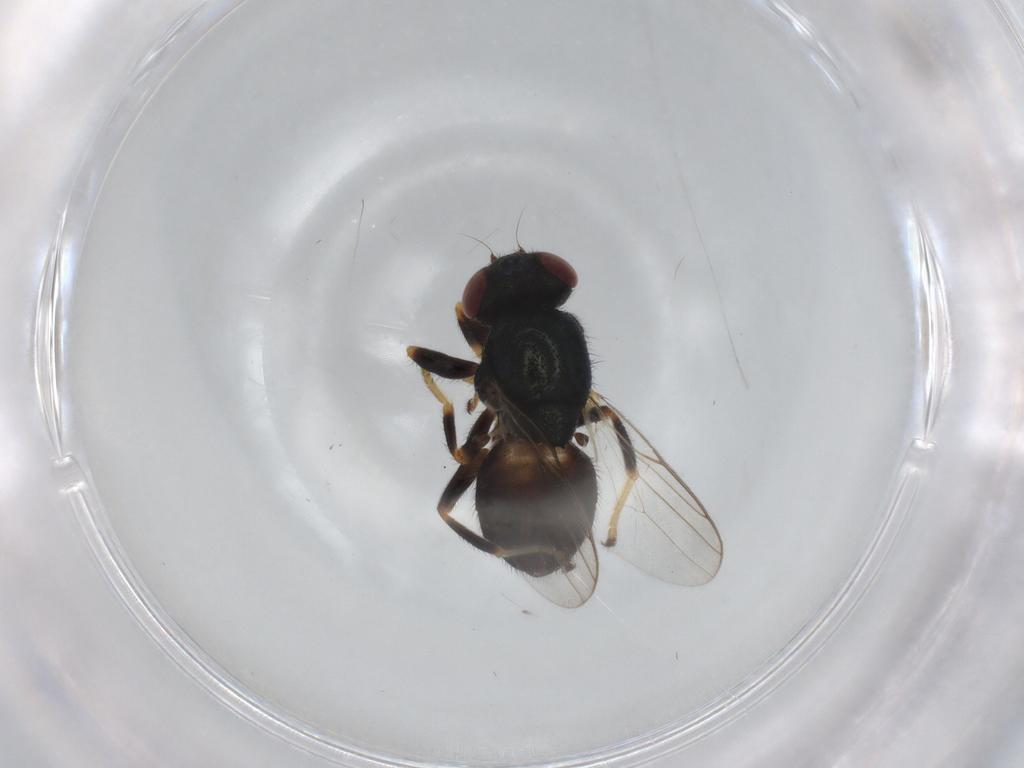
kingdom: Animalia
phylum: Arthropoda
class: Insecta
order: Diptera
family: Chloropidae
